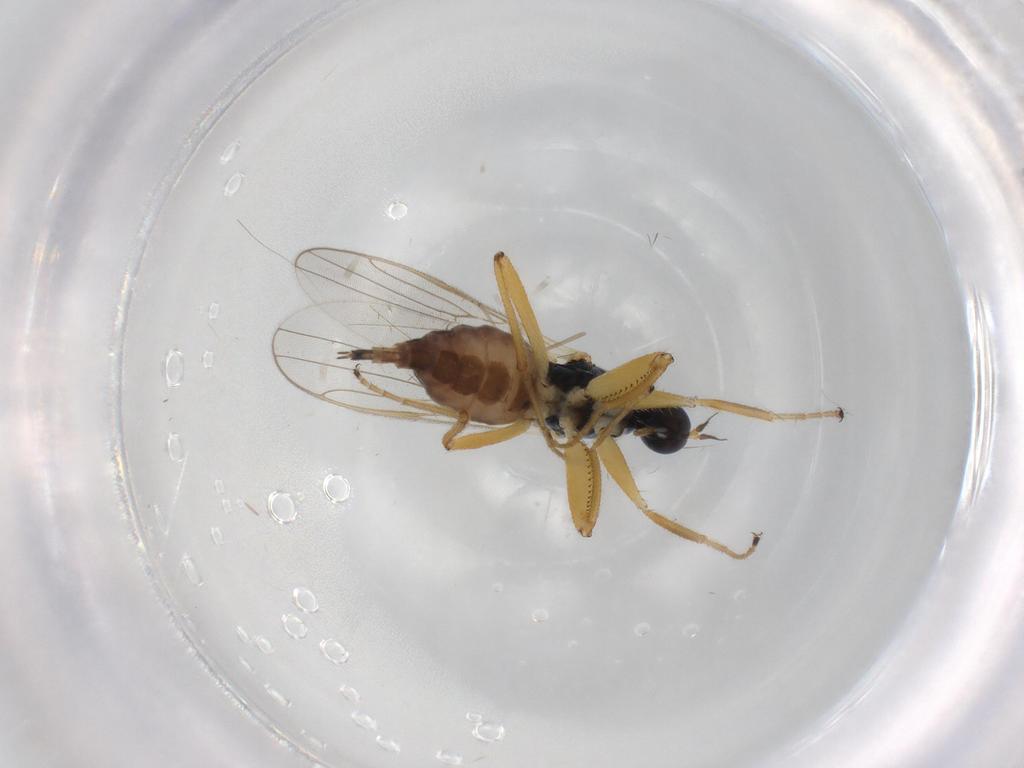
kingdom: Animalia
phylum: Arthropoda
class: Insecta
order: Diptera
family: Hybotidae
